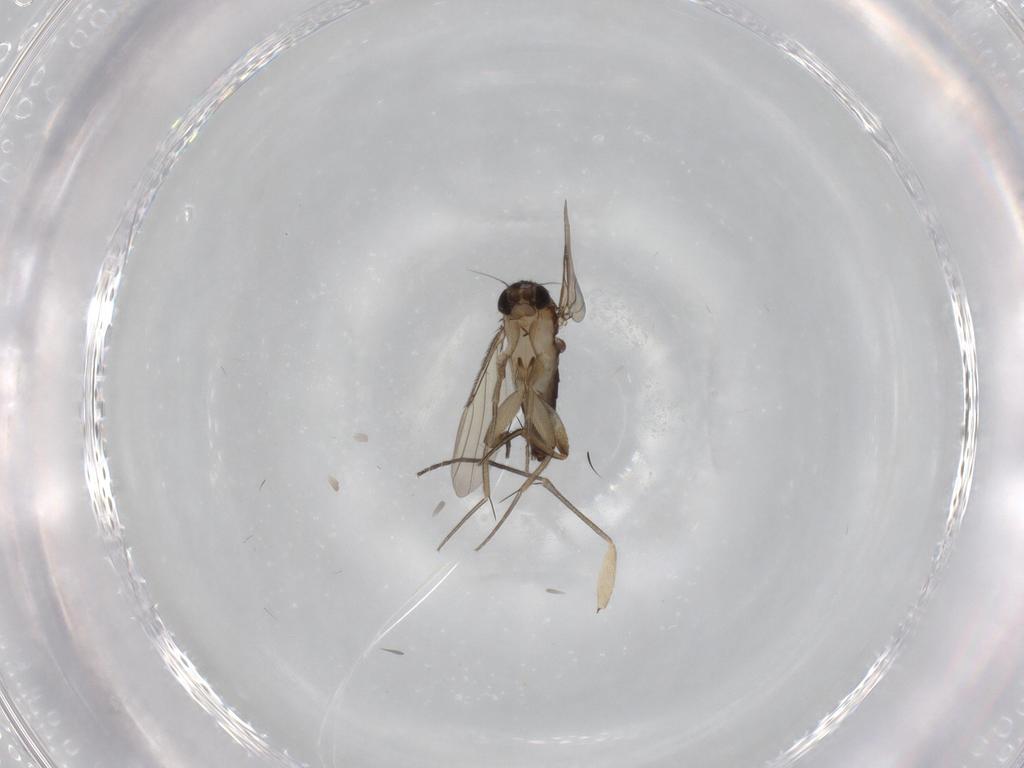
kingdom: Animalia
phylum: Arthropoda
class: Insecta
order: Diptera
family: Phoridae
